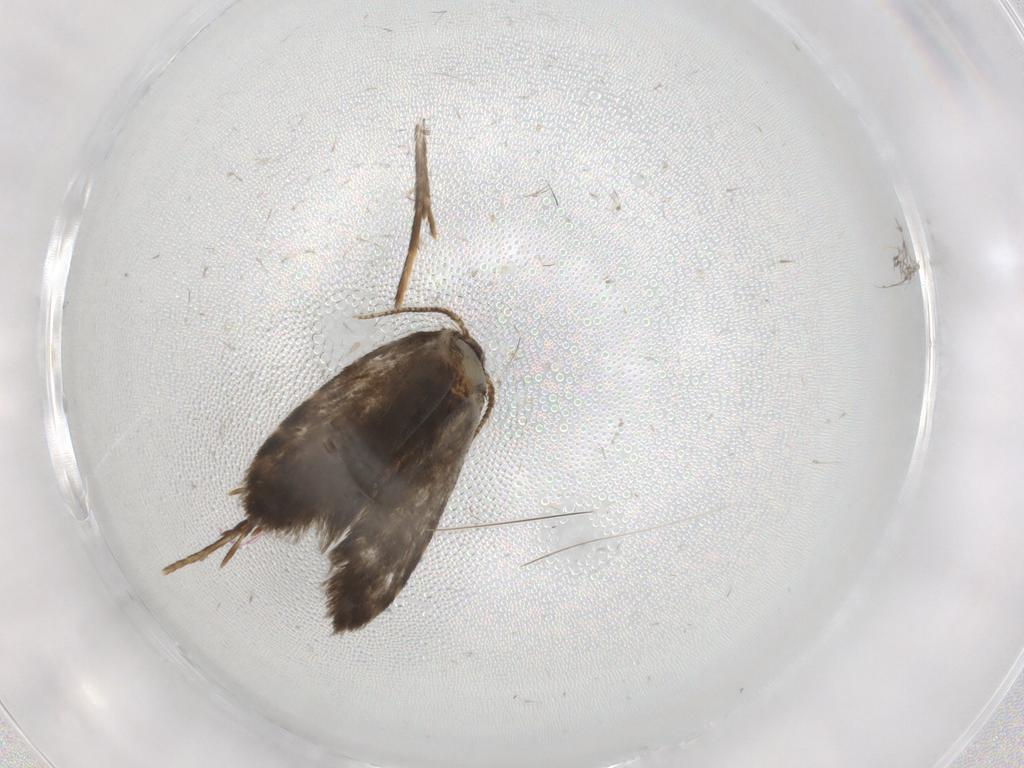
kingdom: Animalia
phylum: Arthropoda
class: Insecta
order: Lepidoptera
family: Psychidae
